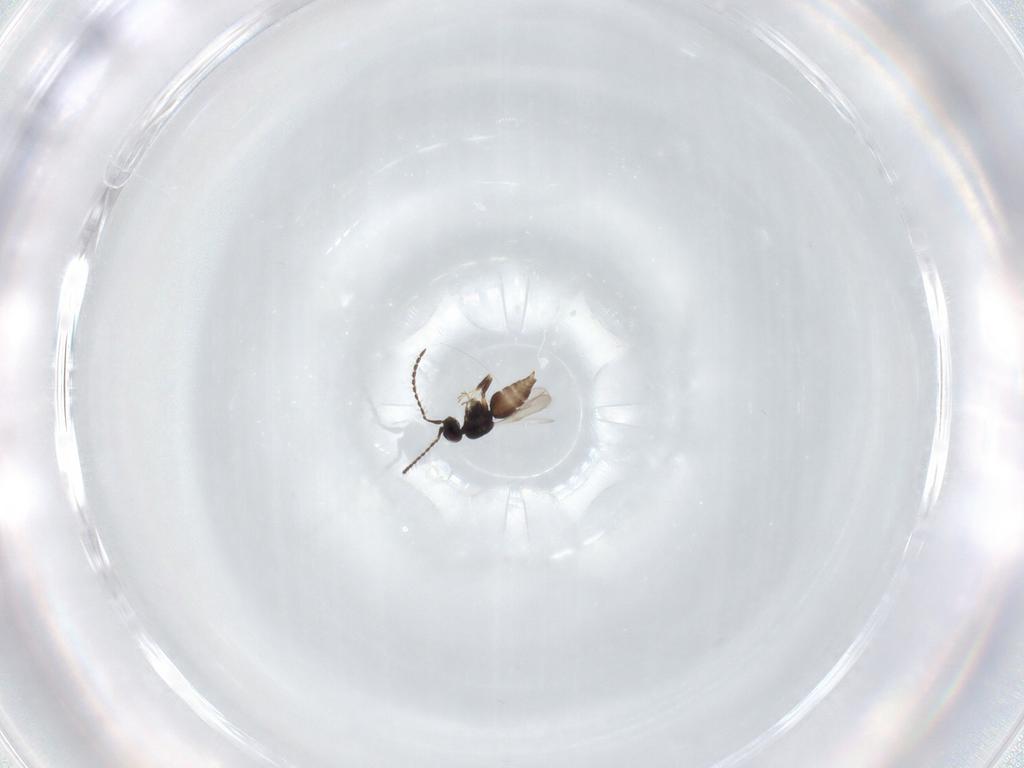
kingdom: Animalia
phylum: Arthropoda
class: Insecta
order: Hymenoptera
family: Ceraphronidae
